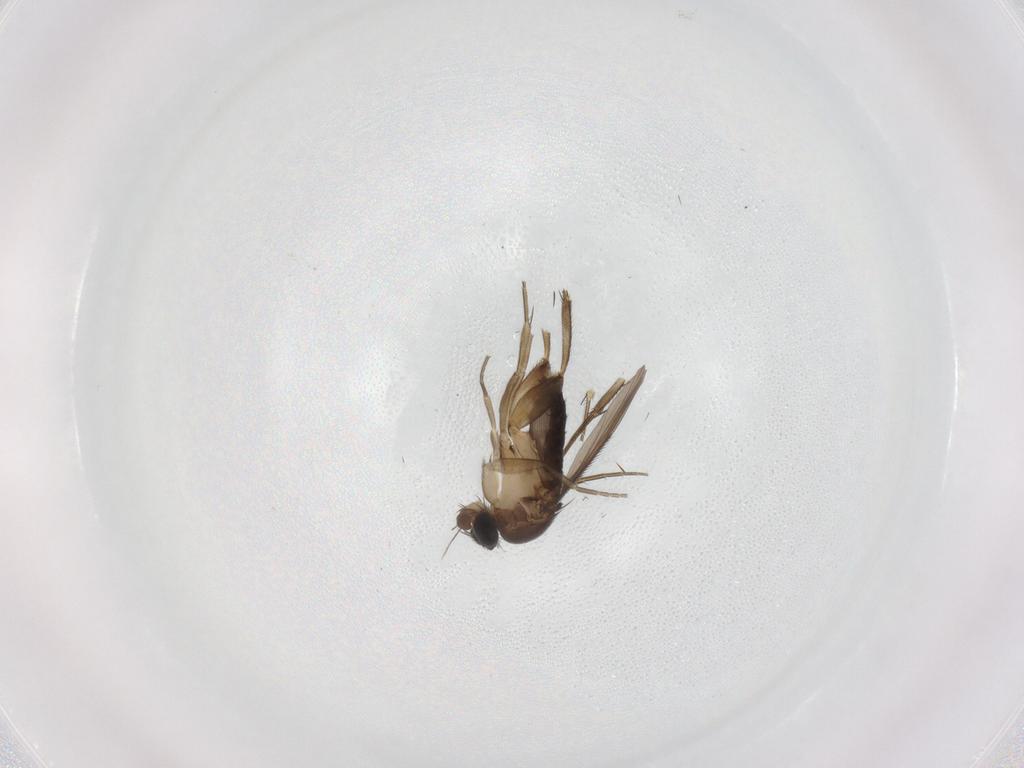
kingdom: Animalia
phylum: Arthropoda
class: Insecta
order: Diptera
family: Phoridae
